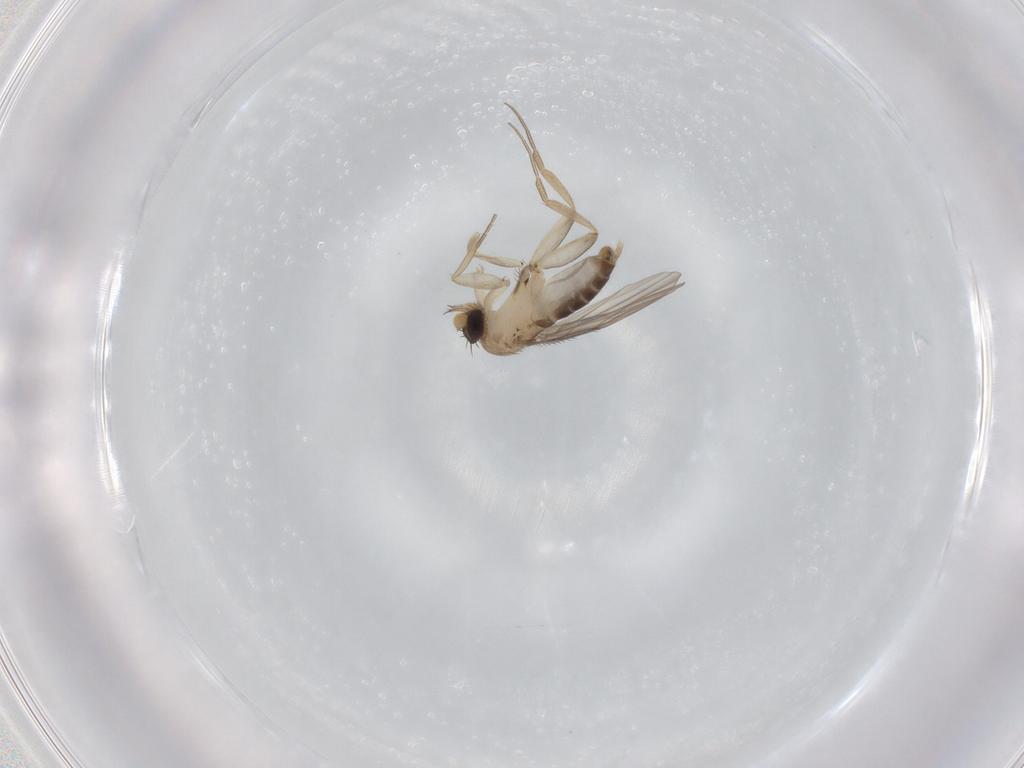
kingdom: Animalia
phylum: Arthropoda
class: Insecta
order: Diptera
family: Phoridae
